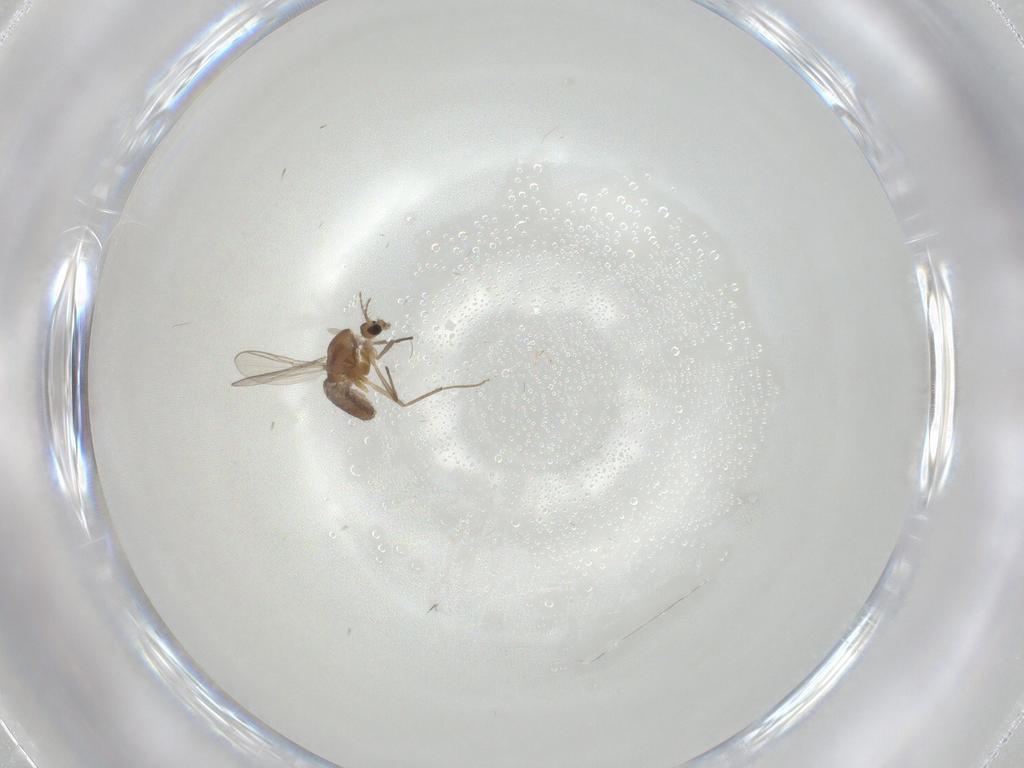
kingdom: Animalia
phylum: Arthropoda
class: Insecta
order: Diptera
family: Chironomidae
